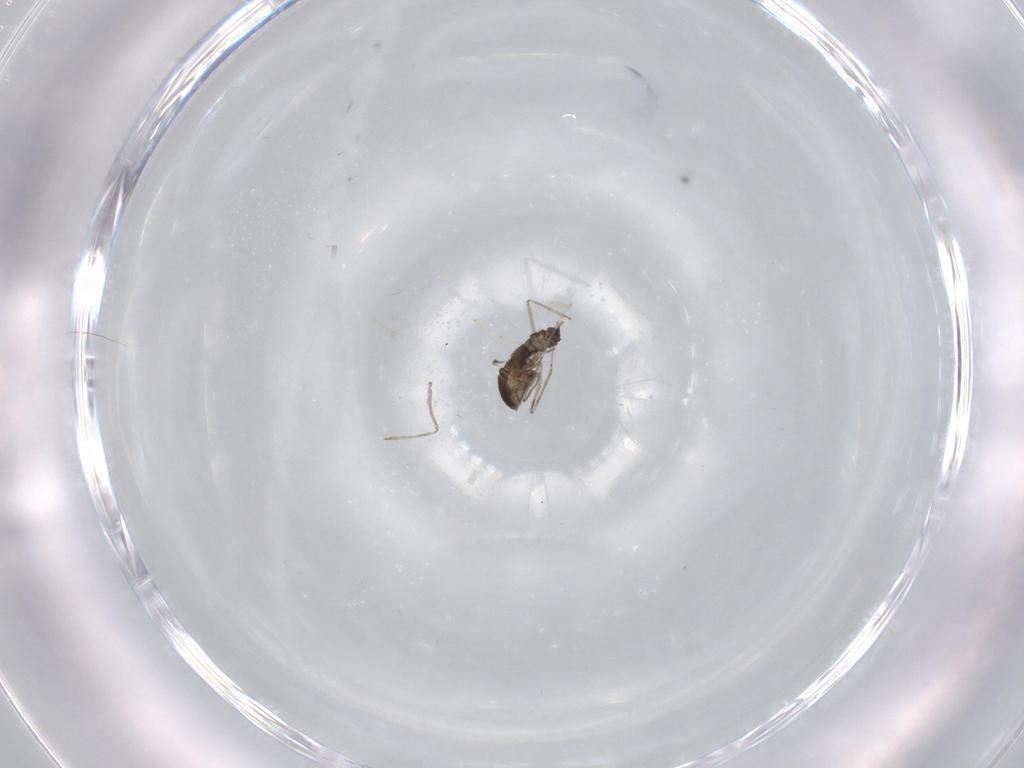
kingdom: Animalia
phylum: Arthropoda
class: Insecta
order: Diptera
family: Cecidomyiidae
